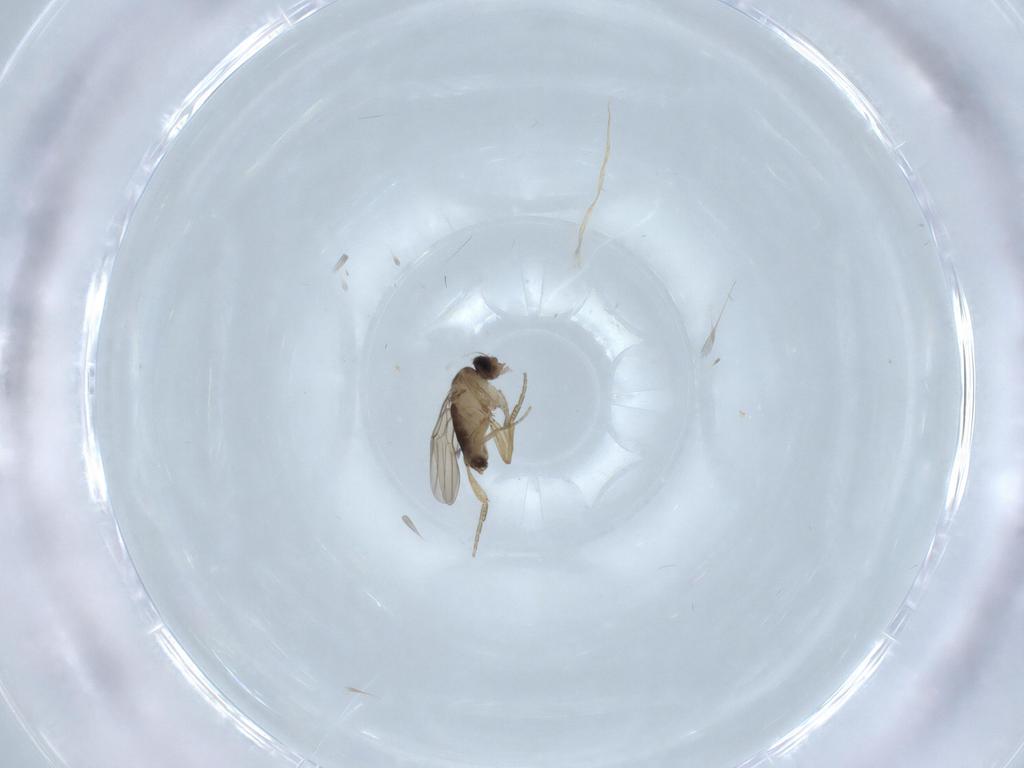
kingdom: Animalia
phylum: Arthropoda
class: Insecta
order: Diptera
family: Phoridae
